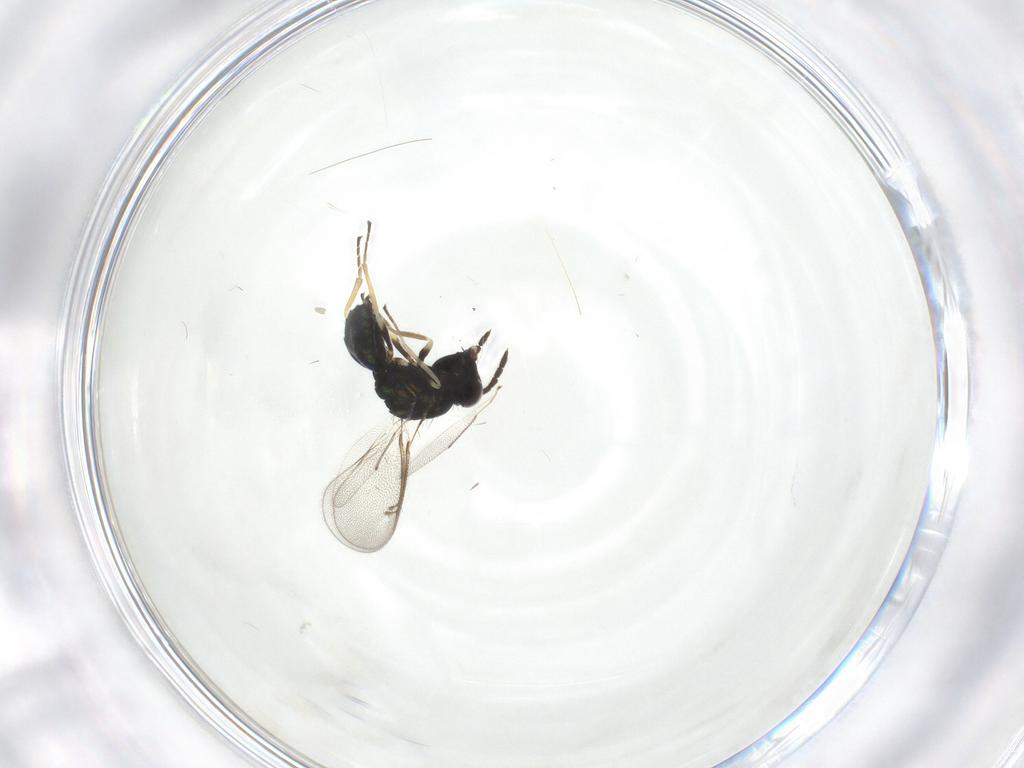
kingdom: Animalia
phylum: Arthropoda
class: Insecta
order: Hymenoptera
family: Eulophidae
